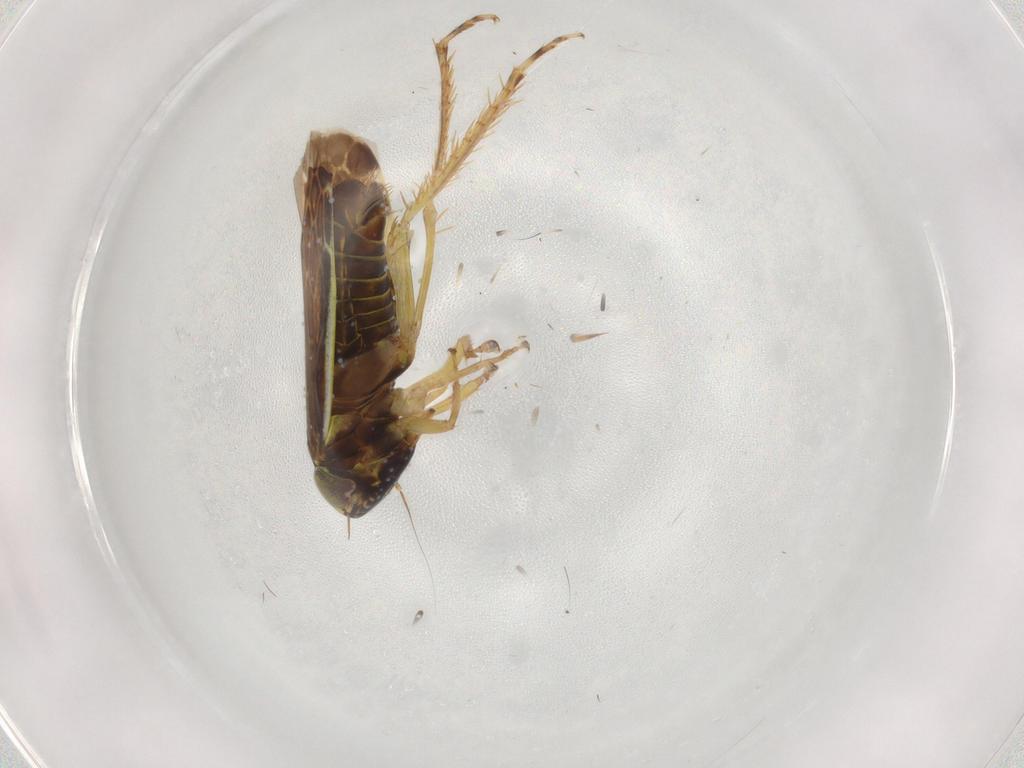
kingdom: Animalia
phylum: Arthropoda
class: Insecta
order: Hemiptera
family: Cicadellidae
